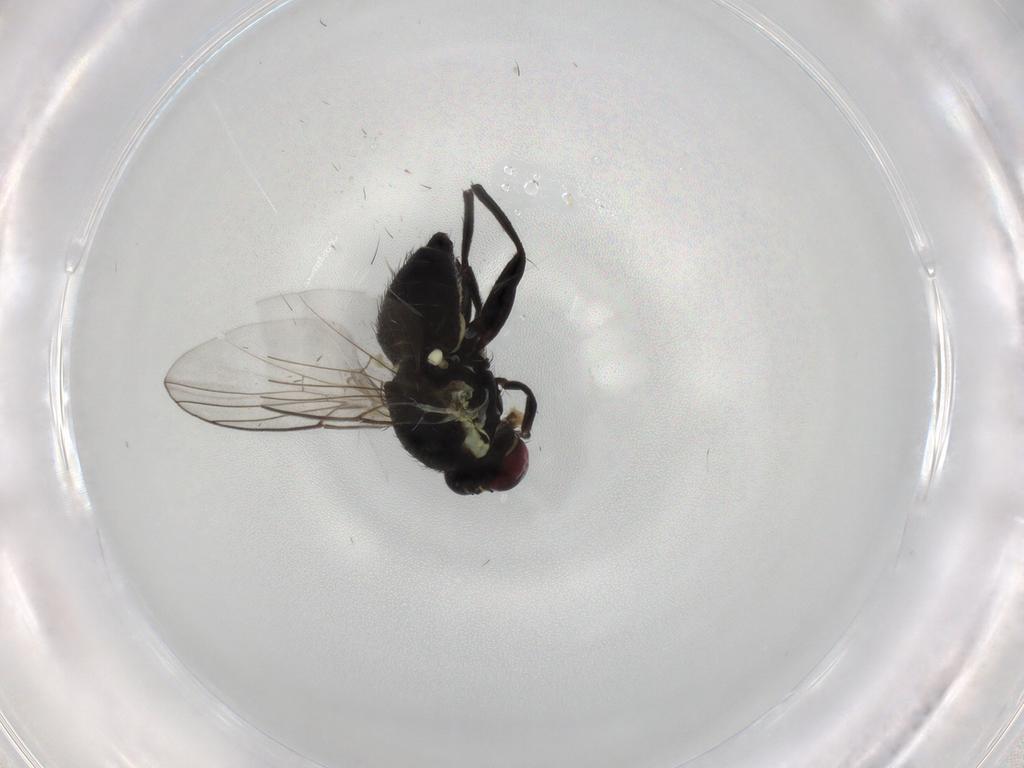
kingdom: Animalia
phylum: Arthropoda
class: Insecta
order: Diptera
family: Agromyzidae
